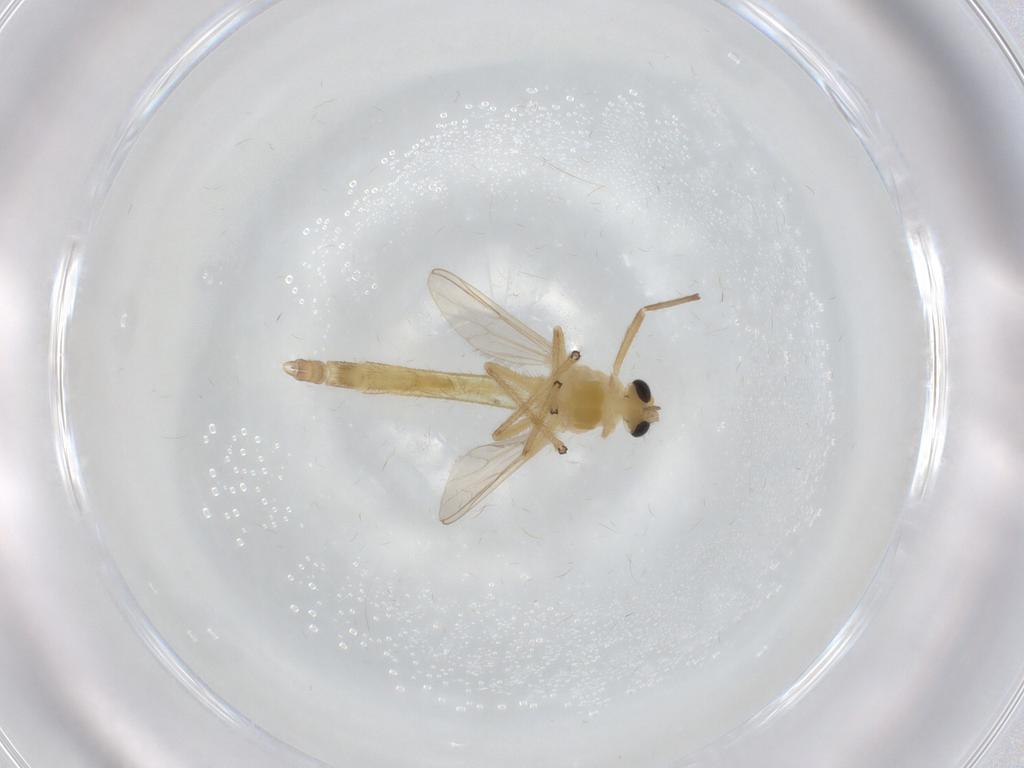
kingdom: Animalia
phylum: Arthropoda
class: Insecta
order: Diptera
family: Chironomidae
